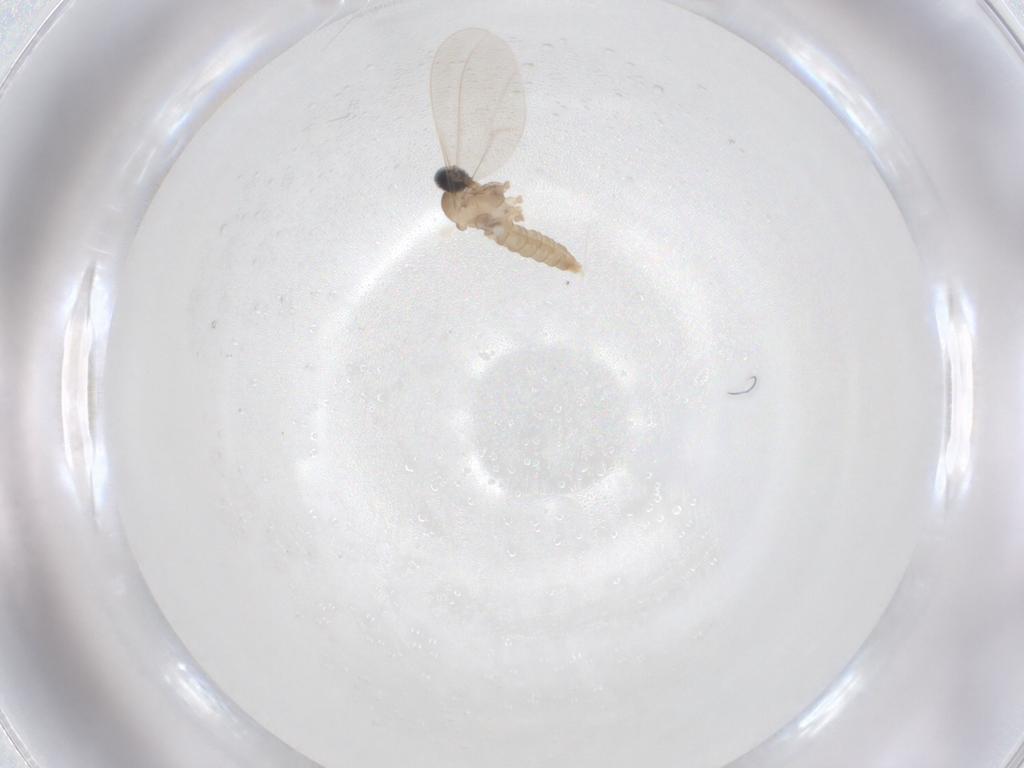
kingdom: Animalia
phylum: Arthropoda
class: Insecta
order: Diptera
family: Cecidomyiidae
